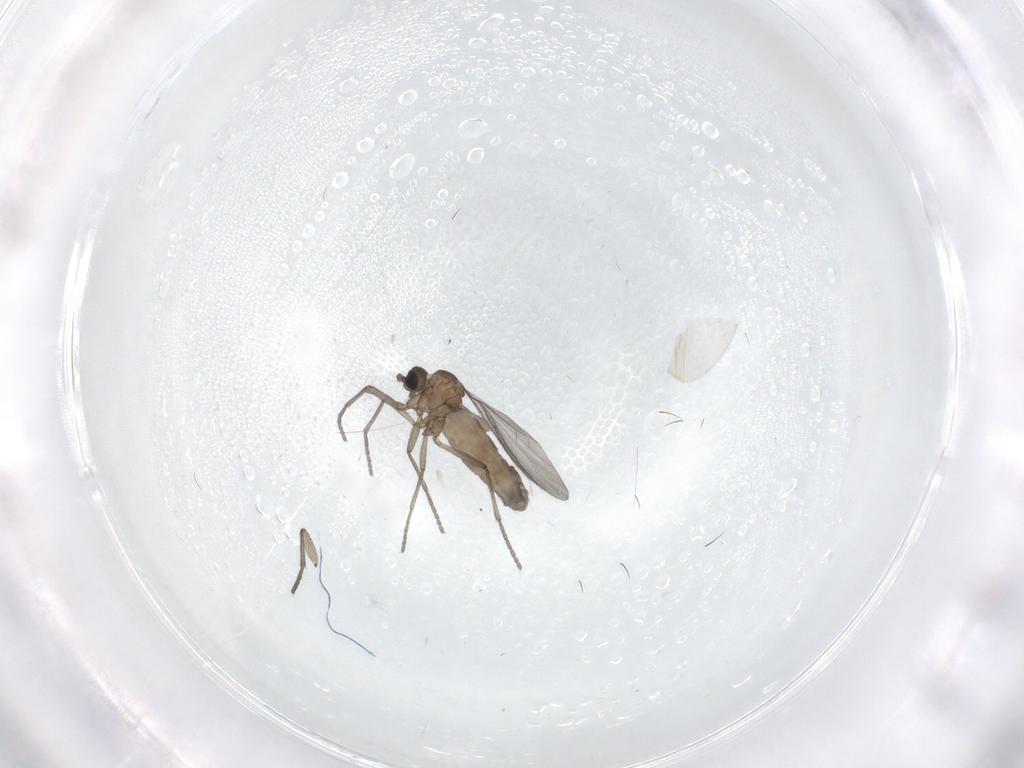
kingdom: Animalia
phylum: Arthropoda
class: Insecta
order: Diptera
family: Sciaridae
